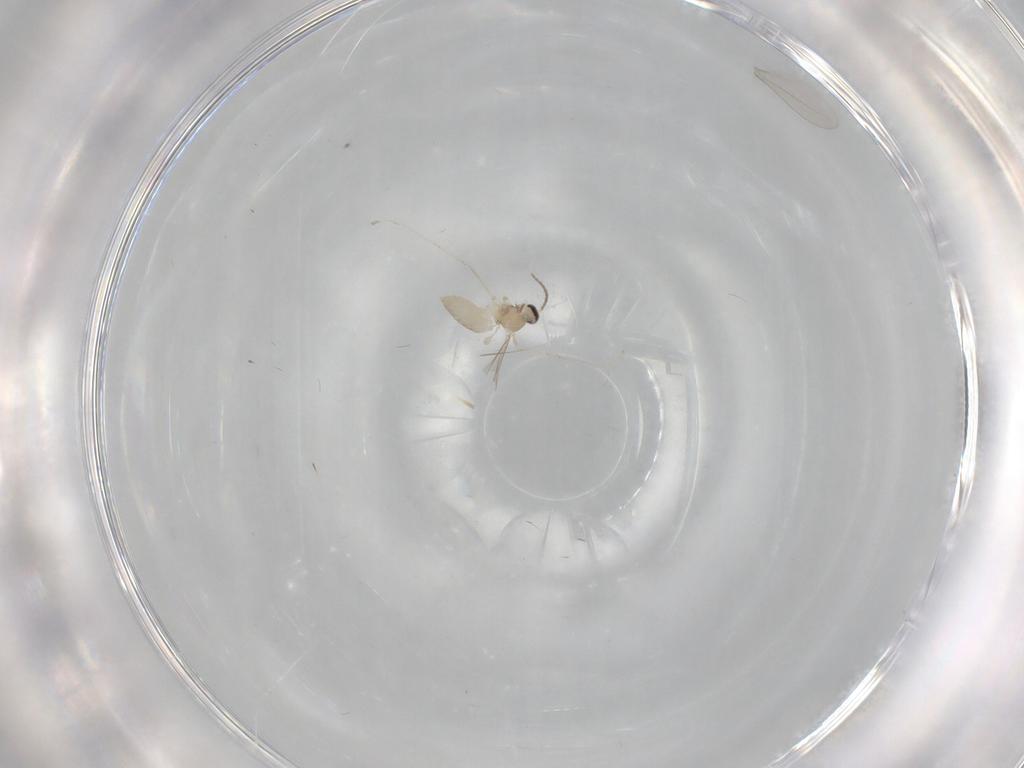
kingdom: Animalia
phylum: Arthropoda
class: Insecta
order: Diptera
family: Cecidomyiidae
